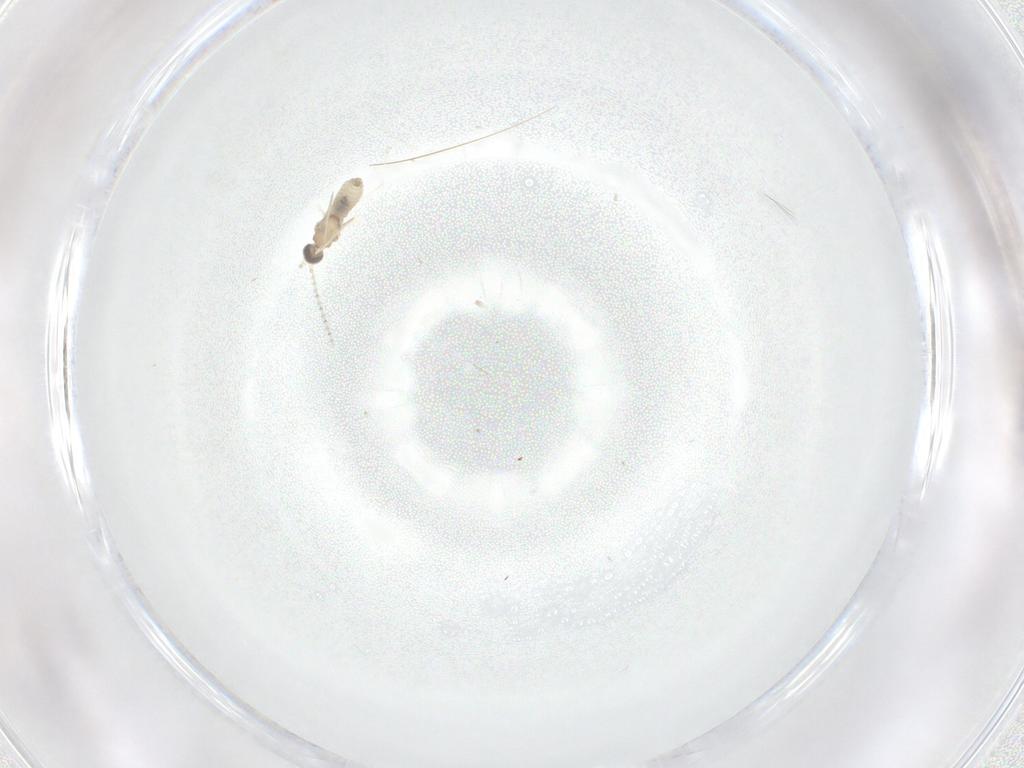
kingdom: Animalia
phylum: Arthropoda
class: Insecta
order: Diptera
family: Cecidomyiidae
